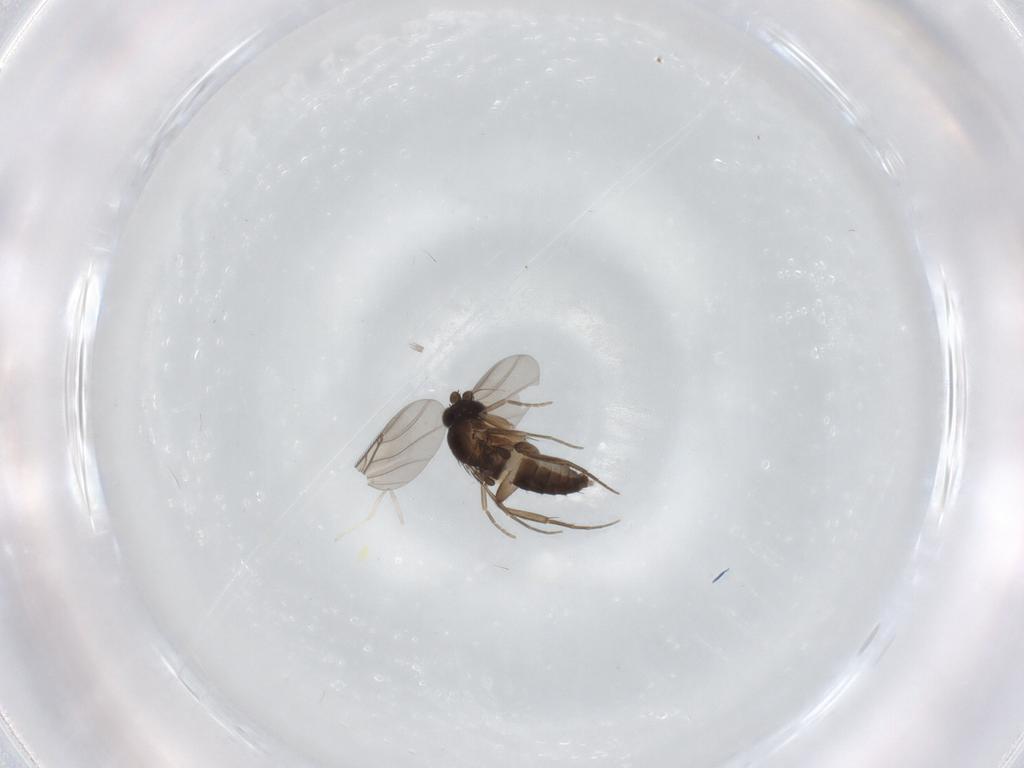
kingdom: Animalia
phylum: Arthropoda
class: Insecta
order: Diptera
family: Phoridae
